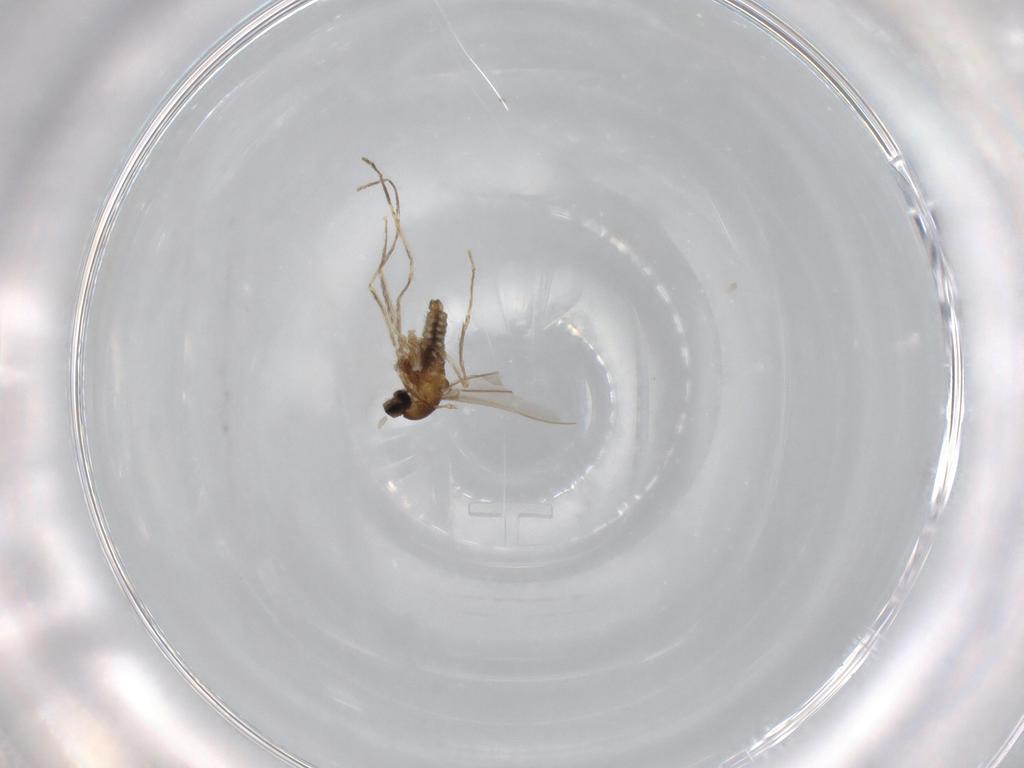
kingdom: Animalia
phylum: Arthropoda
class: Insecta
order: Diptera
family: Cecidomyiidae
